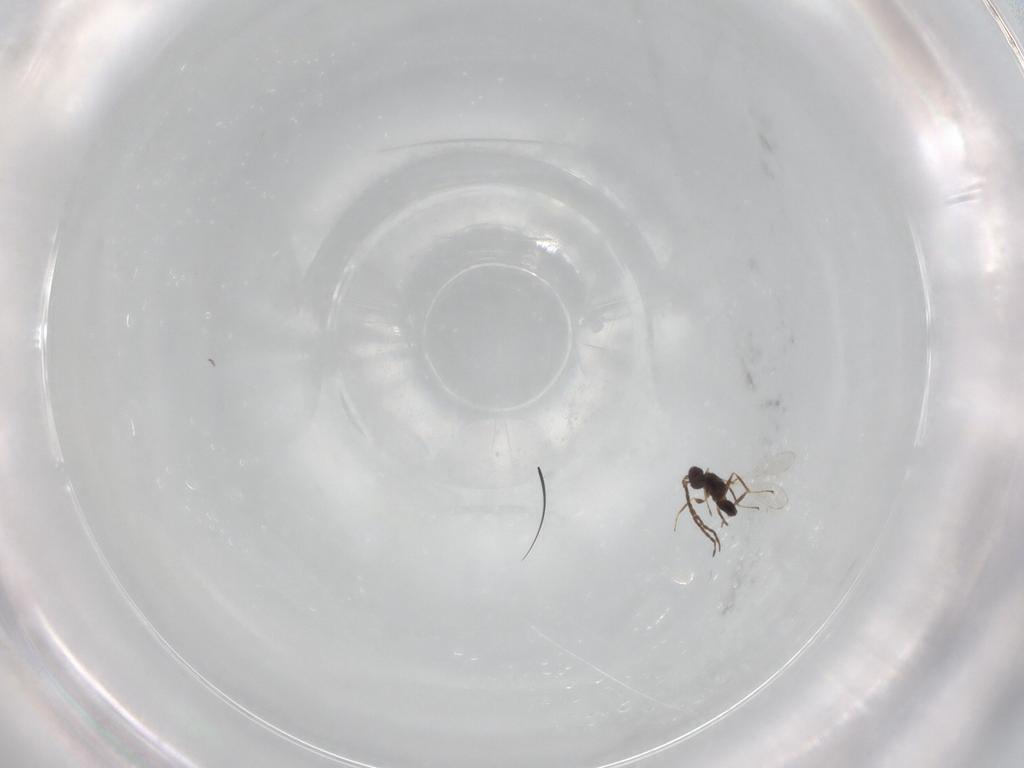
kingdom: Animalia
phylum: Arthropoda
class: Insecta
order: Hymenoptera
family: Mymaridae
